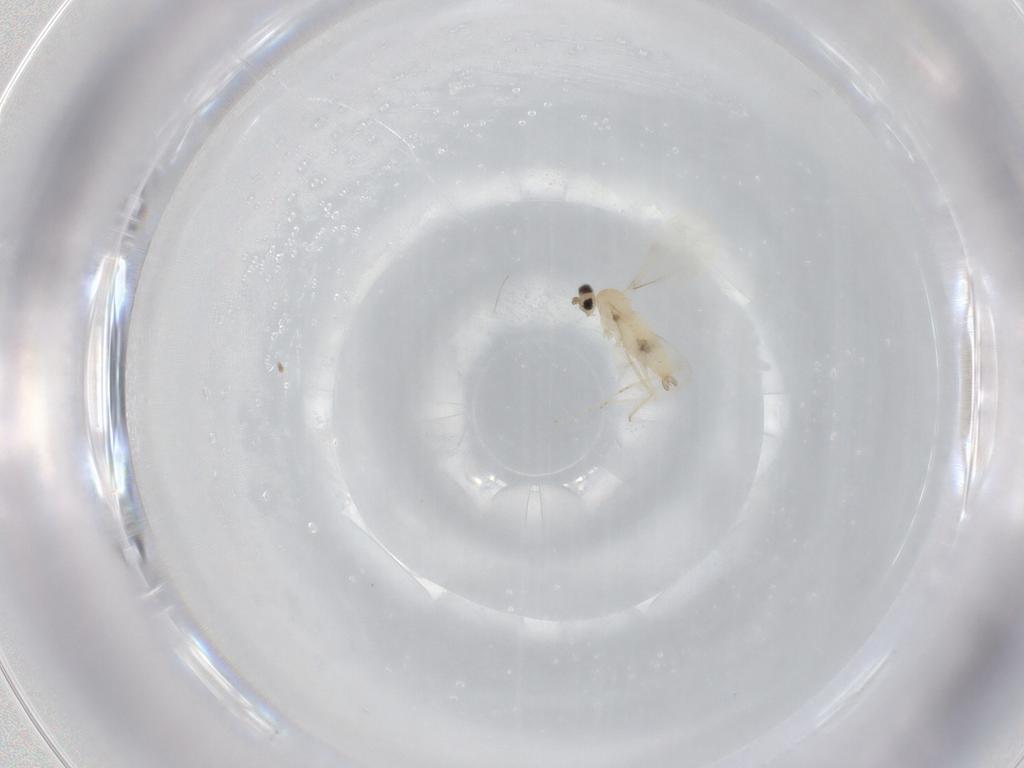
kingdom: Animalia
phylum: Arthropoda
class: Insecta
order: Diptera
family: Cecidomyiidae
